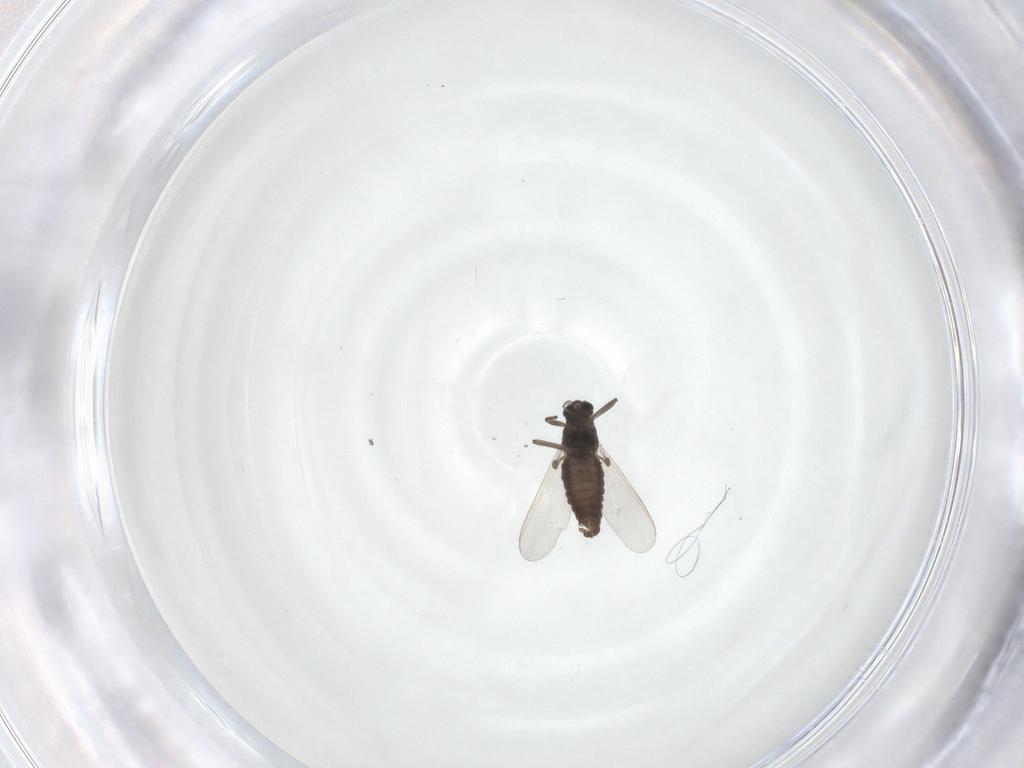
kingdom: Animalia
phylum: Arthropoda
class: Insecta
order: Diptera
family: Chironomidae
